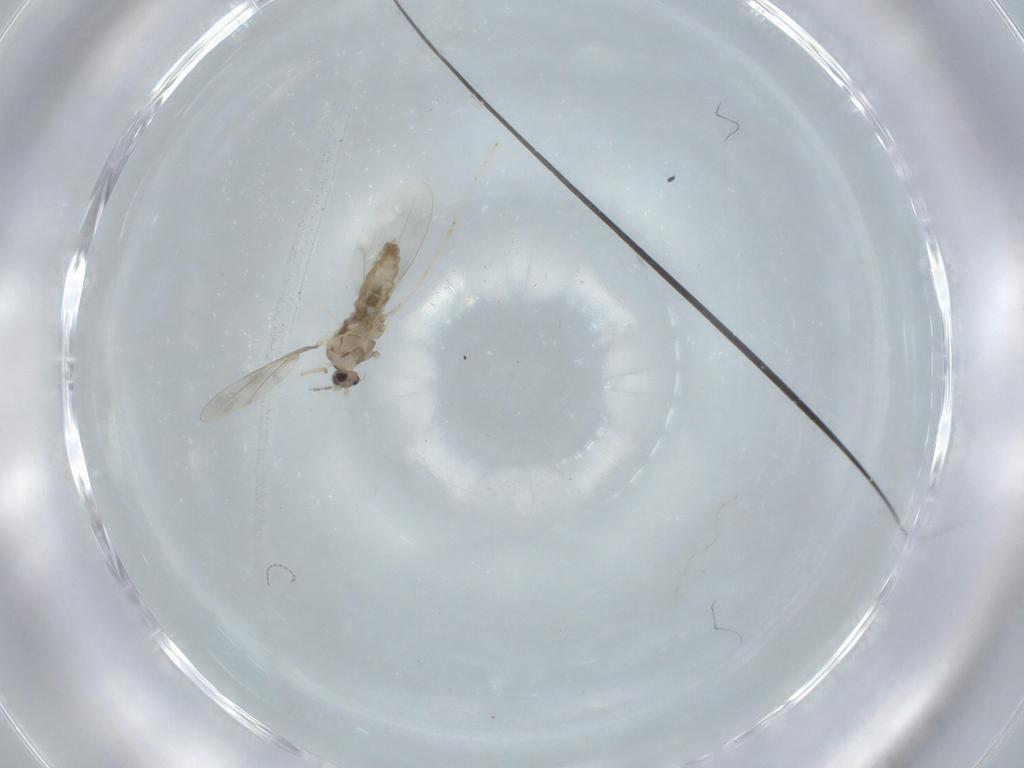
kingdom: Animalia
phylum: Arthropoda
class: Insecta
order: Diptera
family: Cecidomyiidae
